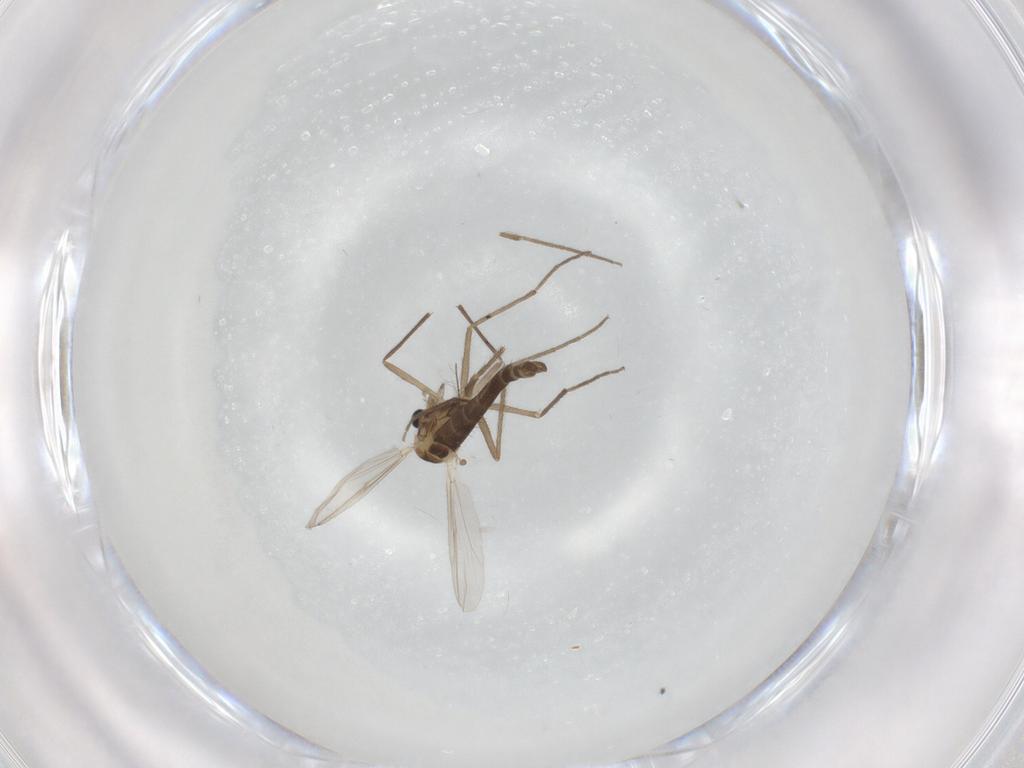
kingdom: Animalia
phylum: Arthropoda
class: Insecta
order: Diptera
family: Chironomidae
